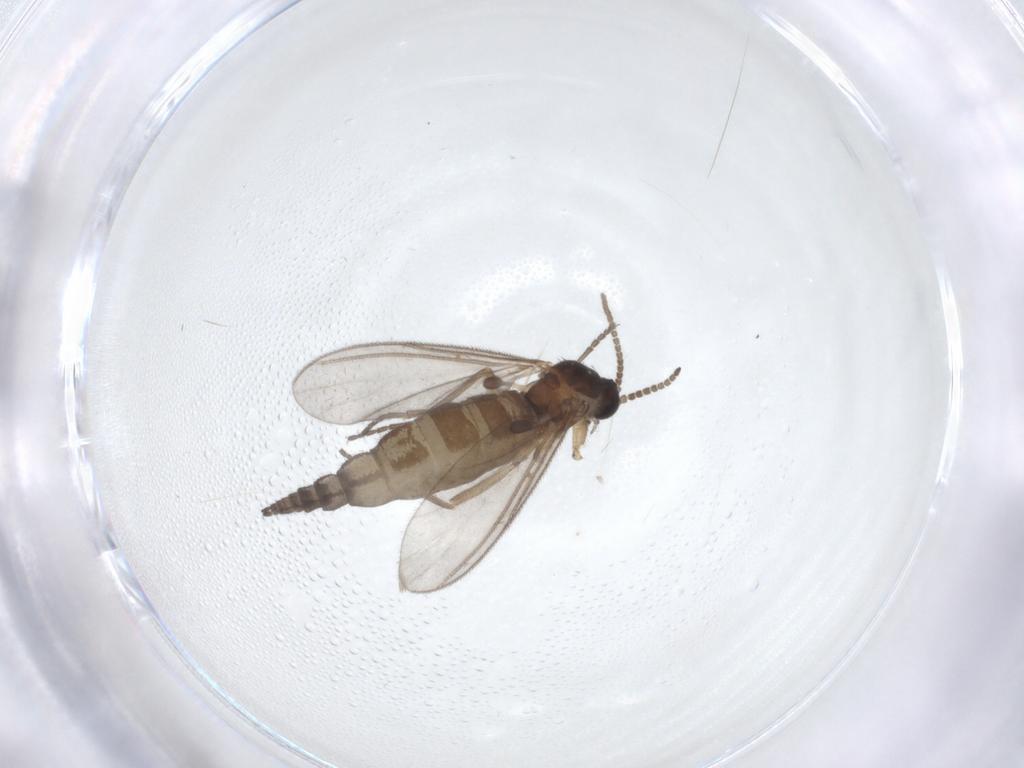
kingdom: Animalia
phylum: Arthropoda
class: Insecta
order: Diptera
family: Sciaridae
